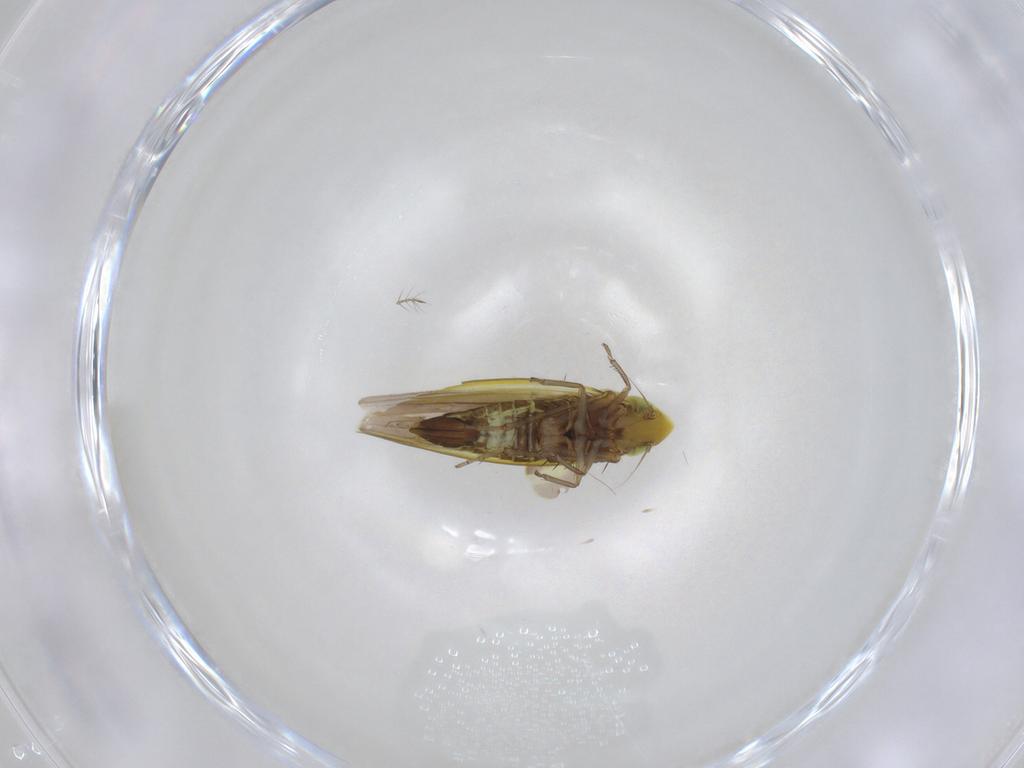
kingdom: Animalia
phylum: Arthropoda
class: Insecta
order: Hemiptera
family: Cicadellidae
